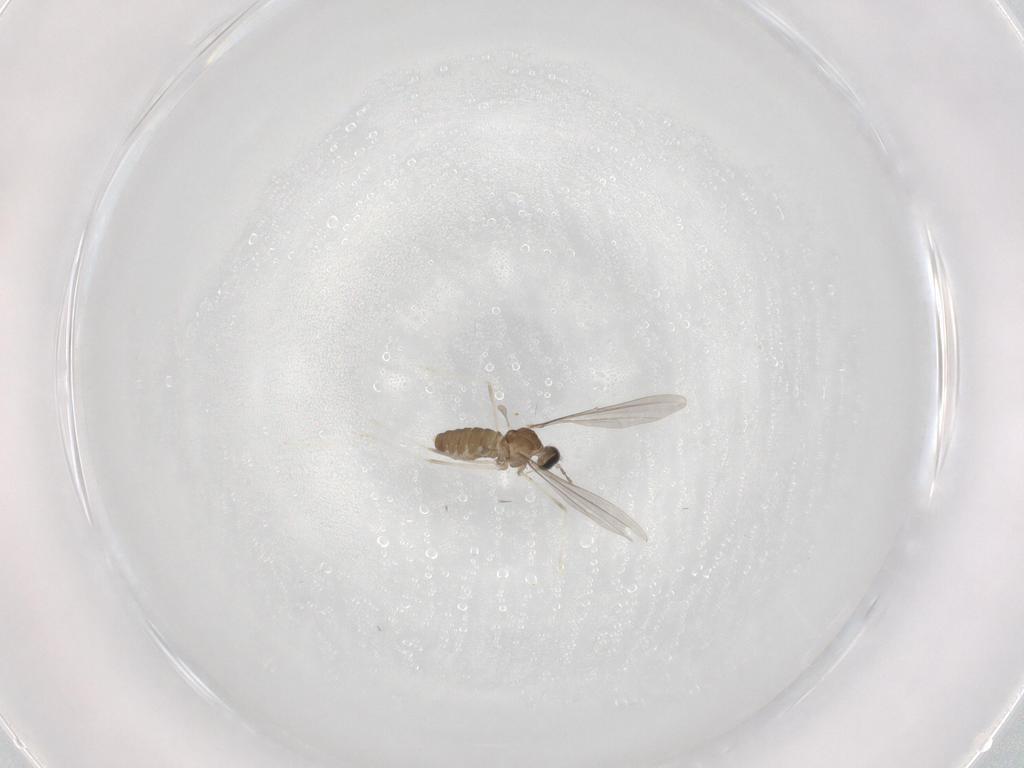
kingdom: Animalia
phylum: Arthropoda
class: Insecta
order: Diptera
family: Cecidomyiidae
